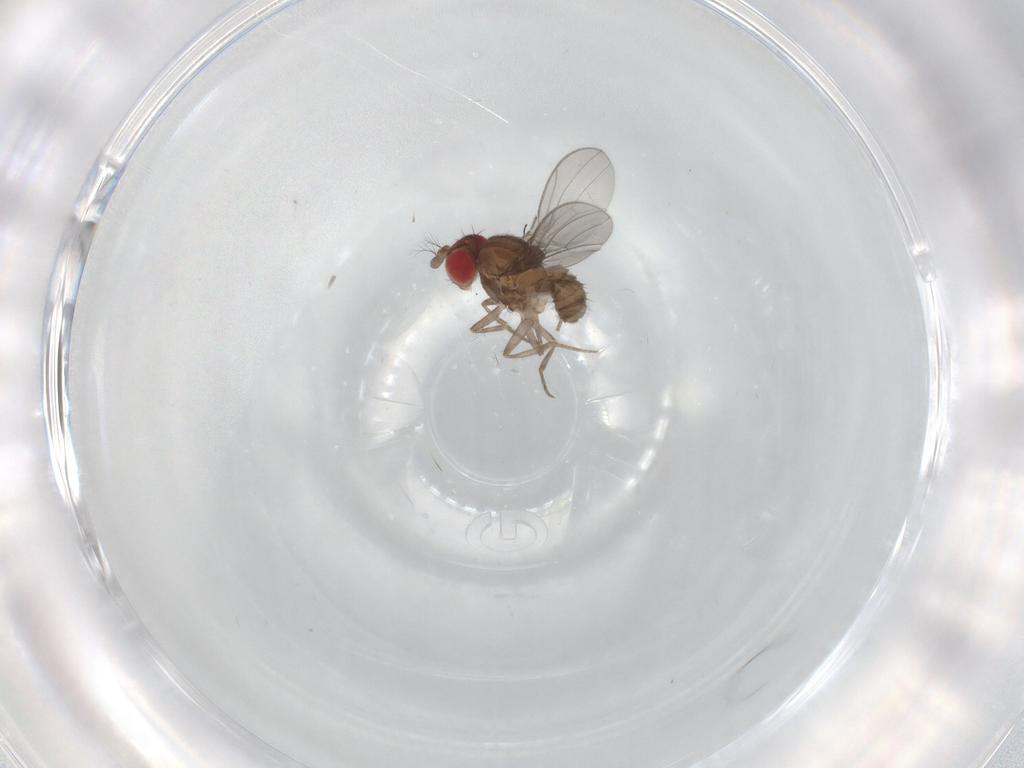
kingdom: Animalia
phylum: Arthropoda
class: Insecta
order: Diptera
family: Drosophilidae
